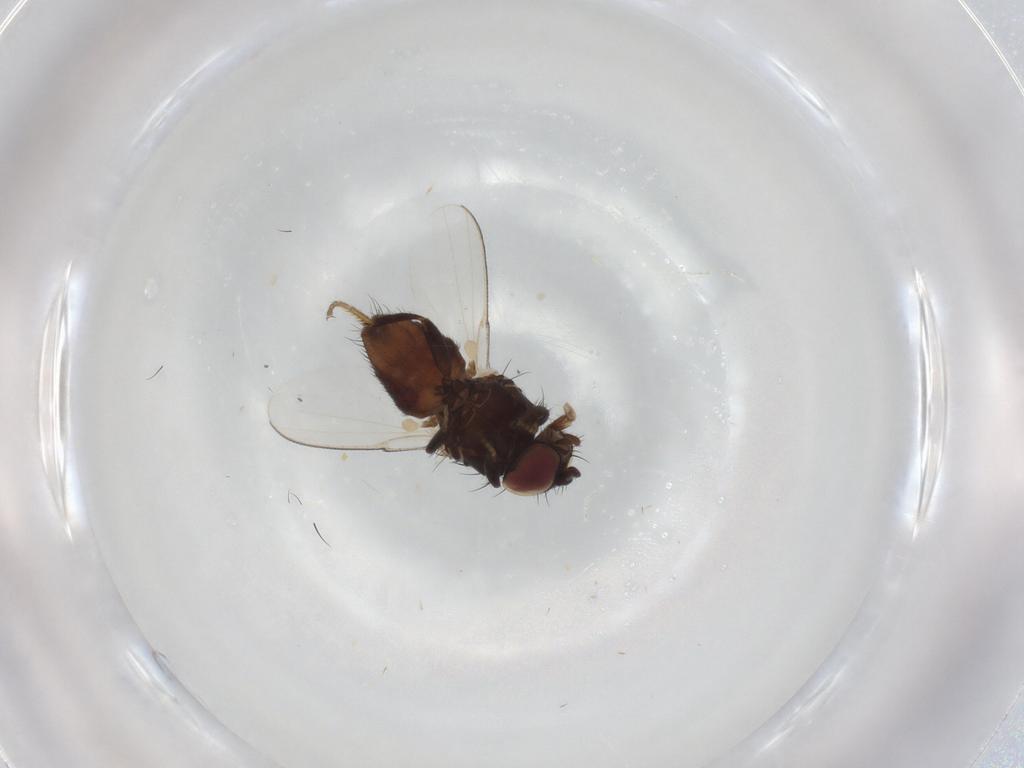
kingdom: Animalia
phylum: Arthropoda
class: Insecta
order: Diptera
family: Milichiidae
